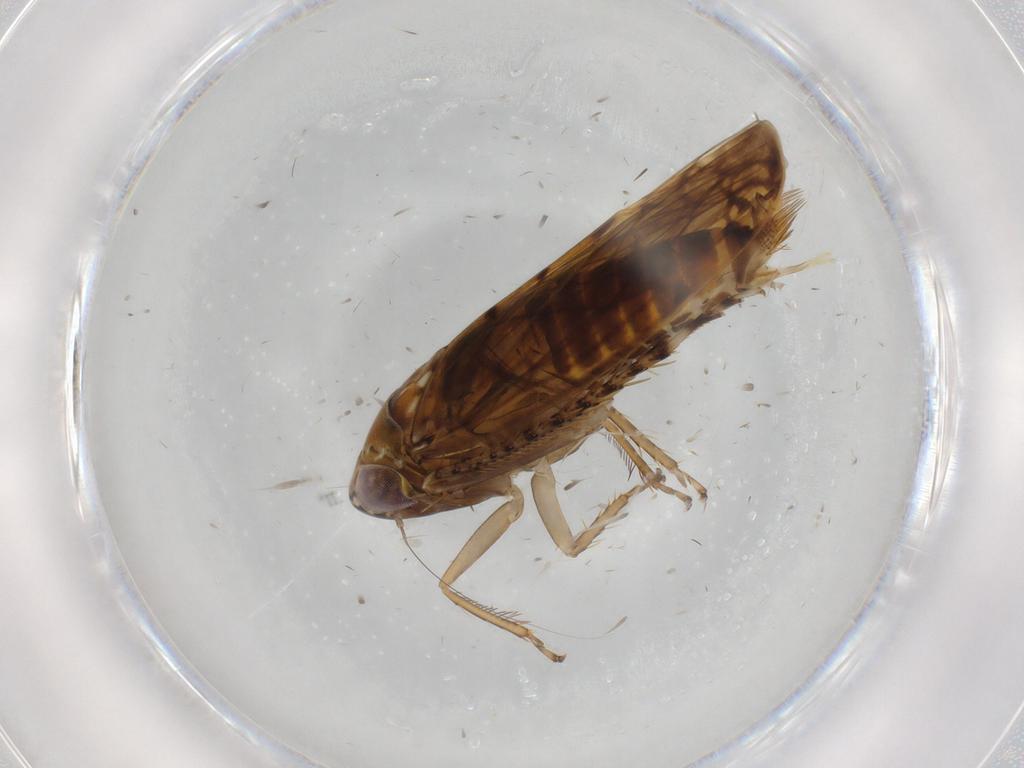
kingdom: Animalia
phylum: Arthropoda
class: Insecta
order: Hemiptera
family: Cicadellidae
